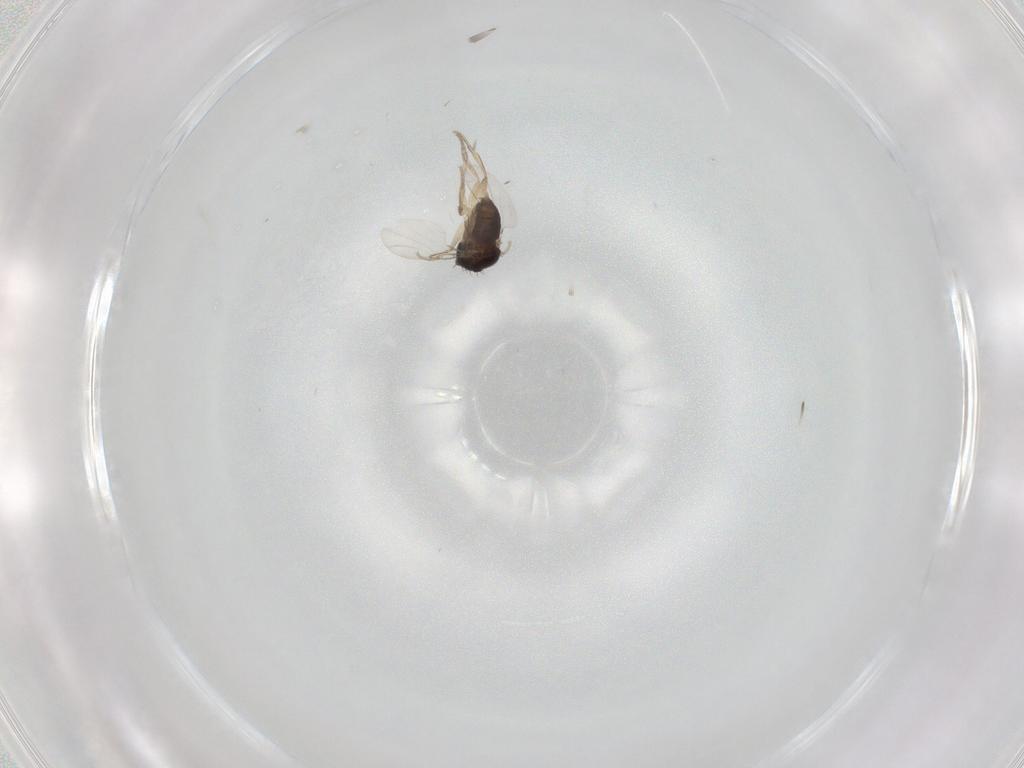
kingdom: Animalia
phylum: Arthropoda
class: Insecta
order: Diptera
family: Phoridae
